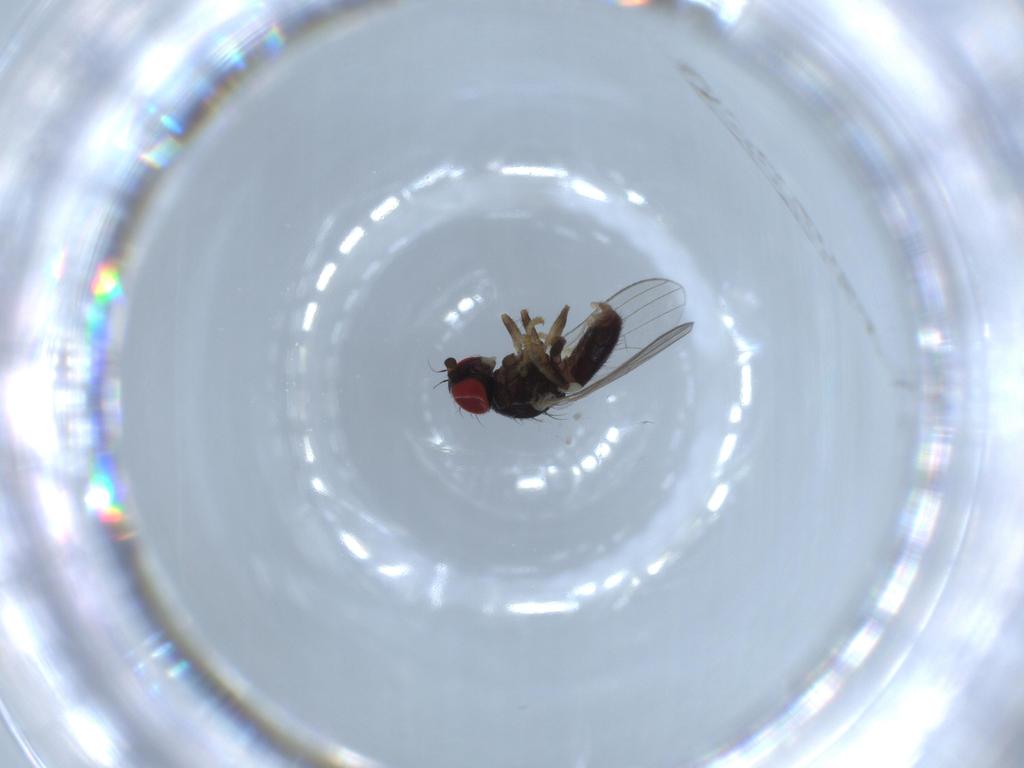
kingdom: Animalia
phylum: Arthropoda
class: Insecta
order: Diptera
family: Chamaemyiidae
